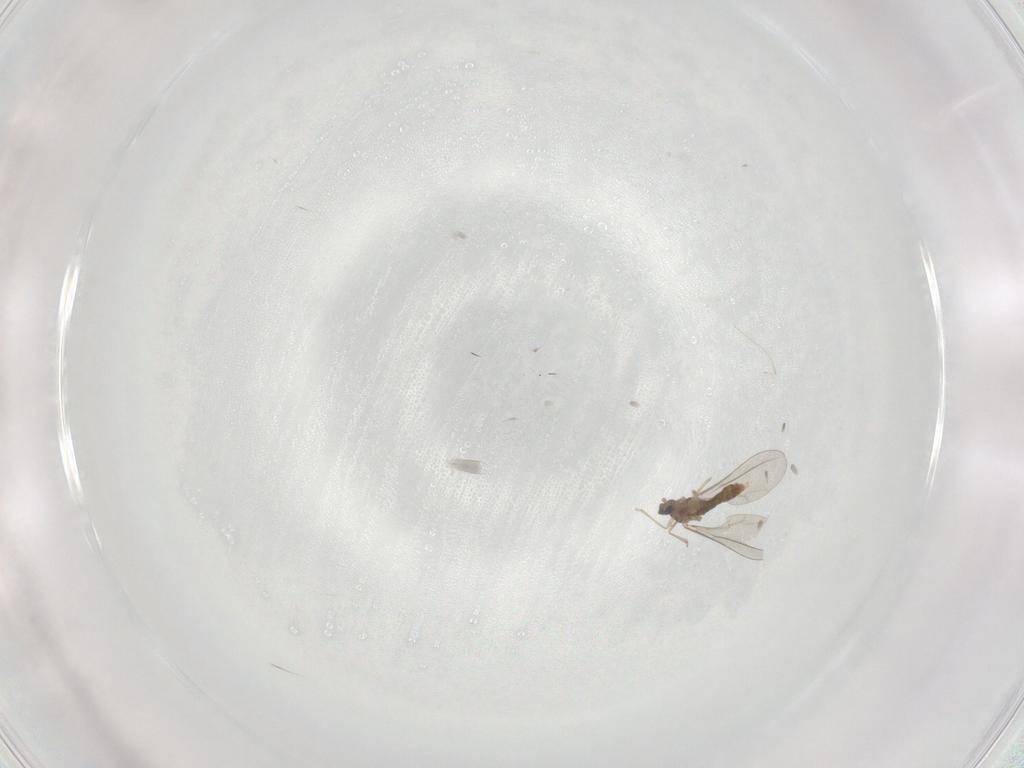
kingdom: Animalia
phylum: Arthropoda
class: Insecta
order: Diptera
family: Cecidomyiidae
